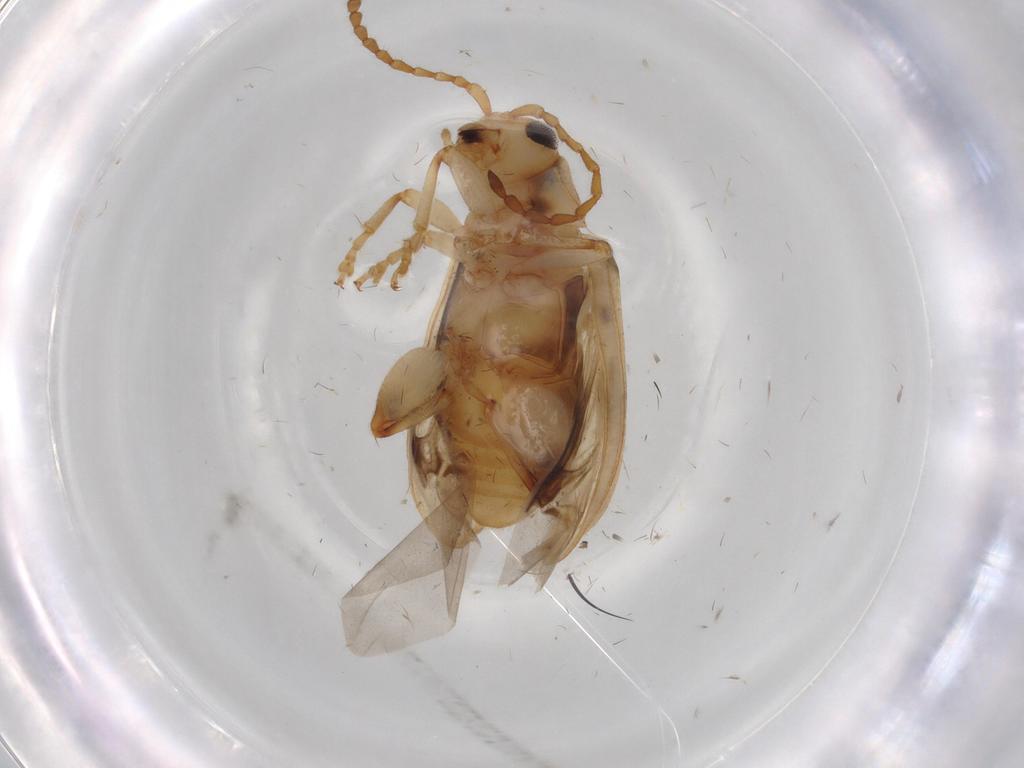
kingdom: Animalia
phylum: Arthropoda
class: Insecta
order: Coleoptera
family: Chrysomelidae
